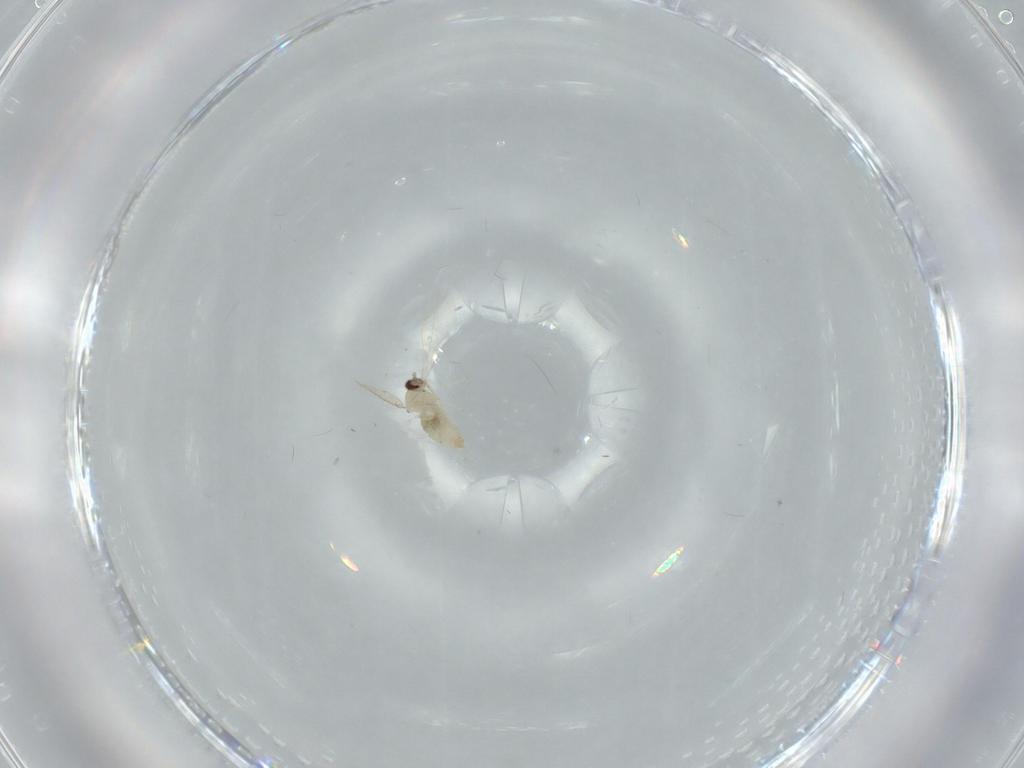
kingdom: Animalia
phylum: Arthropoda
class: Insecta
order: Diptera
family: Cecidomyiidae
